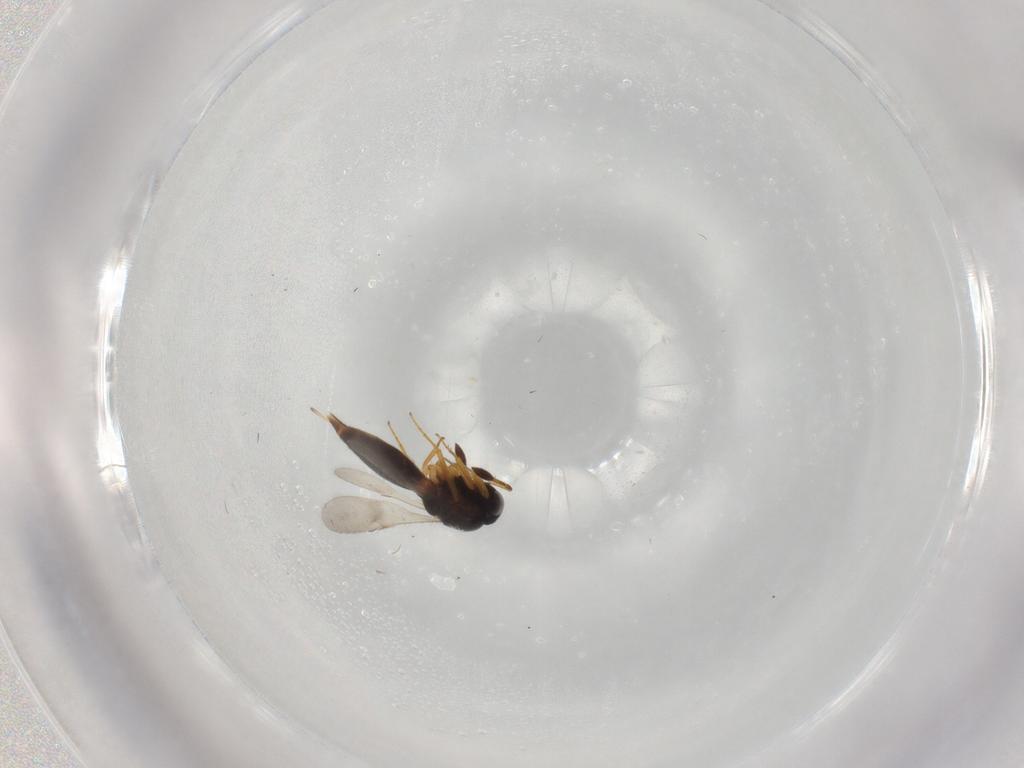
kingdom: Animalia
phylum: Arthropoda
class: Insecta
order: Hymenoptera
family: Scelionidae
